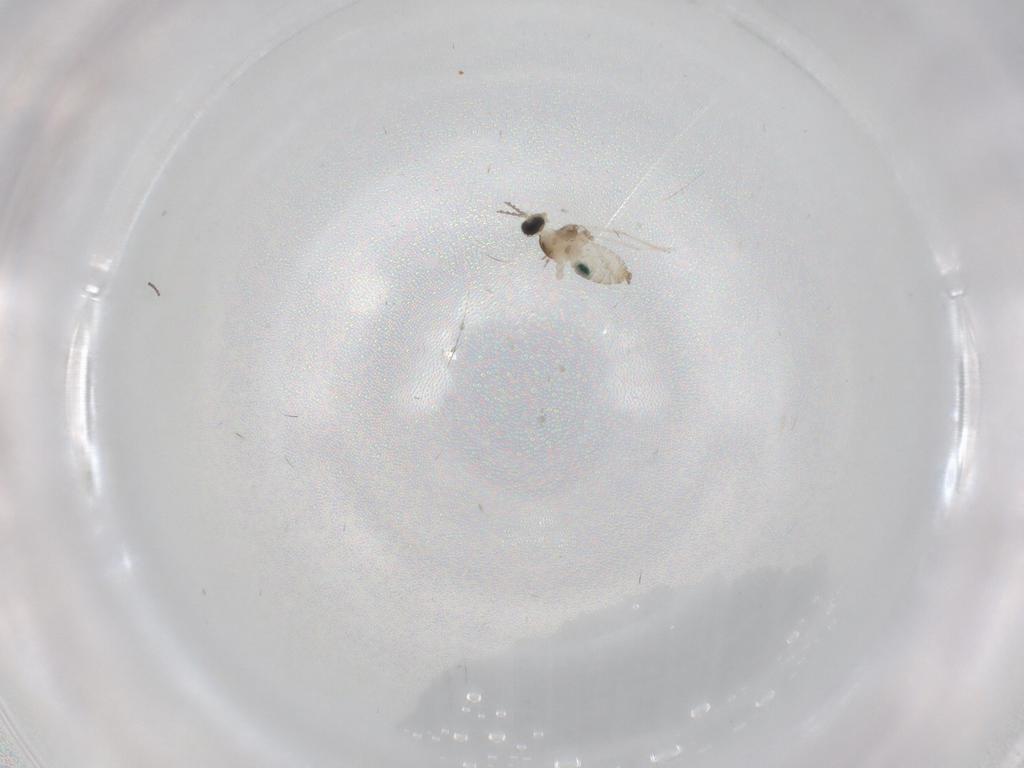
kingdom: Animalia
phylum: Arthropoda
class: Insecta
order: Diptera
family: Cecidomyiidae
